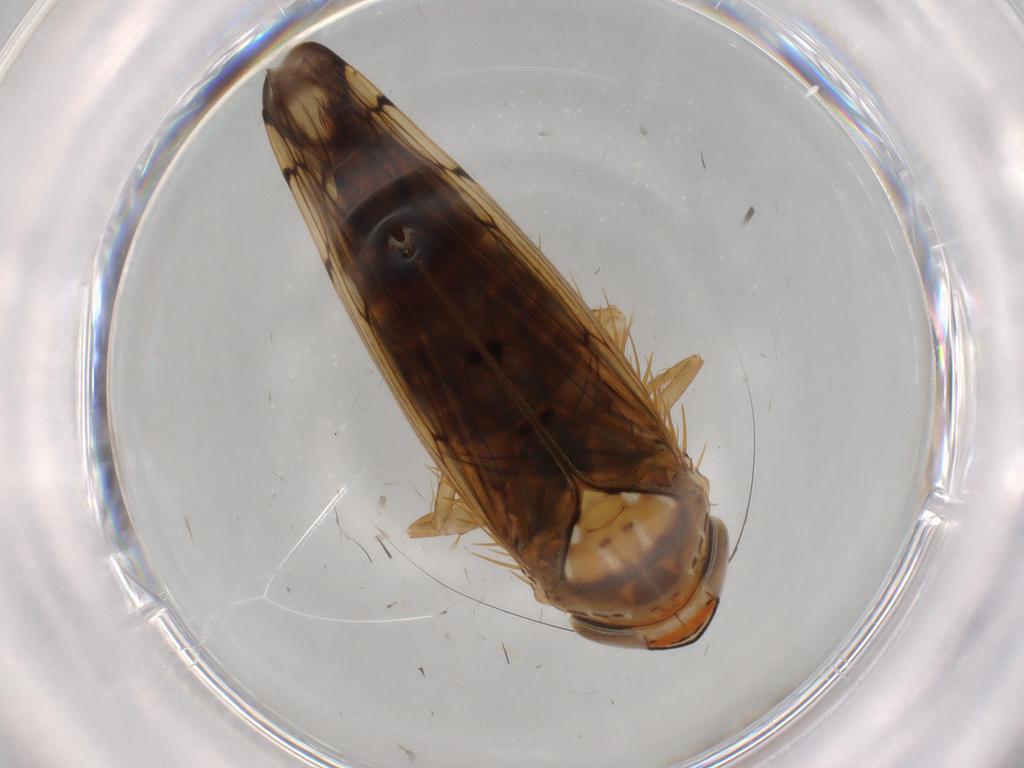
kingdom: Animalia
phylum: Arthropoda
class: Insecta
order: Hemiptera
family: Cicadellidae
